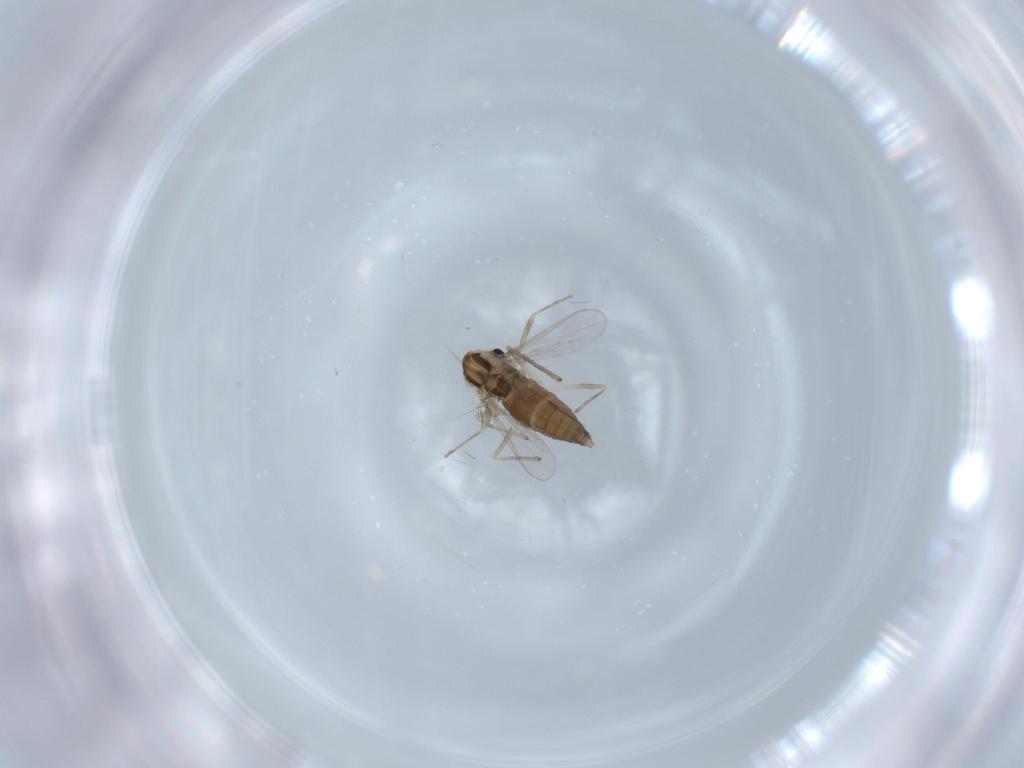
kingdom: Animalia
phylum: Arthropoda
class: Insecta
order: Diptera
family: Chironomidae
